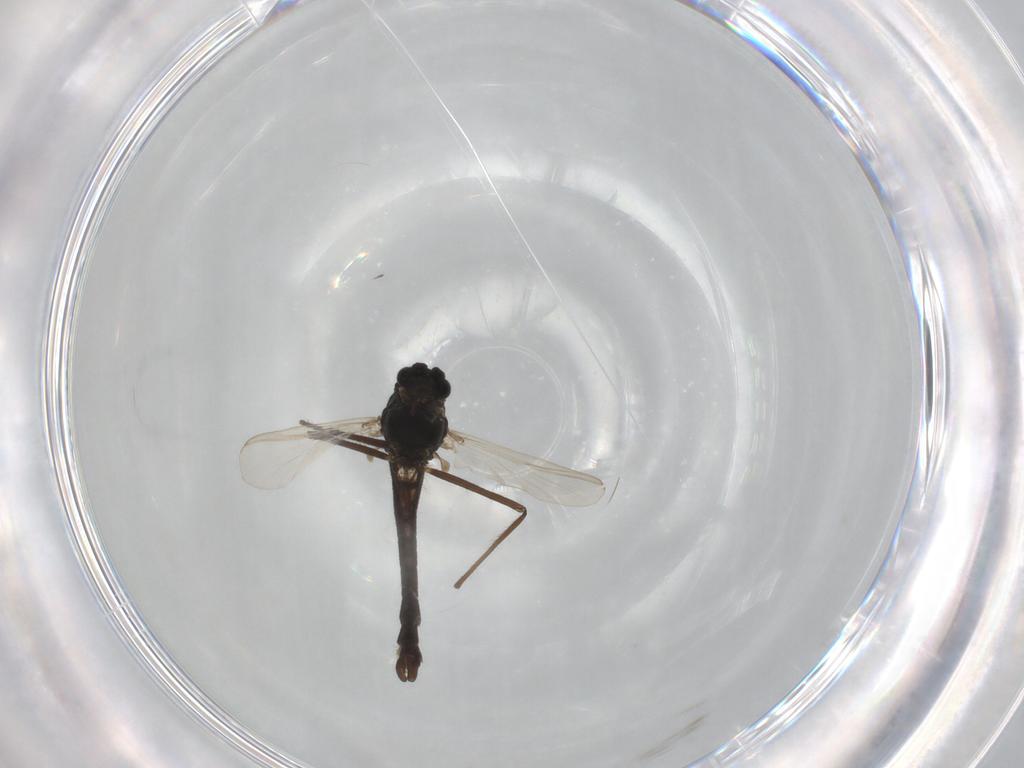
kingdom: Animalia
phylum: Arthropoda
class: Insecta
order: Diptera
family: Chironomidae
